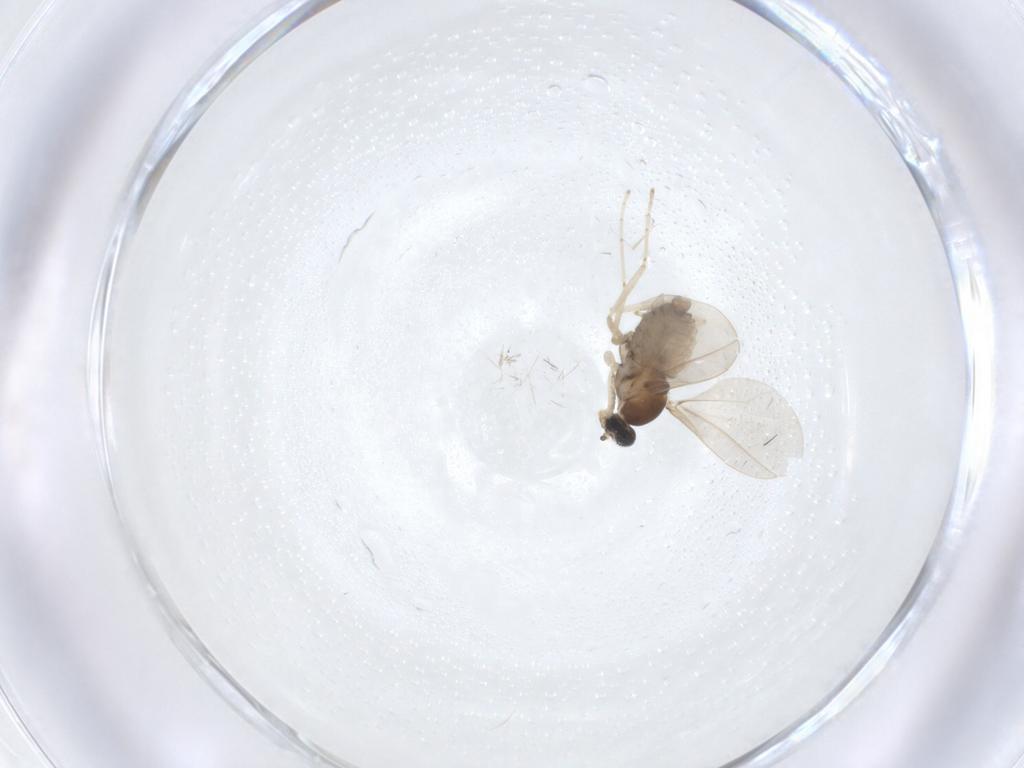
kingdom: Animalia
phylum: Arthropoda
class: Insecta
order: Diptera
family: Cecidomyiidae
